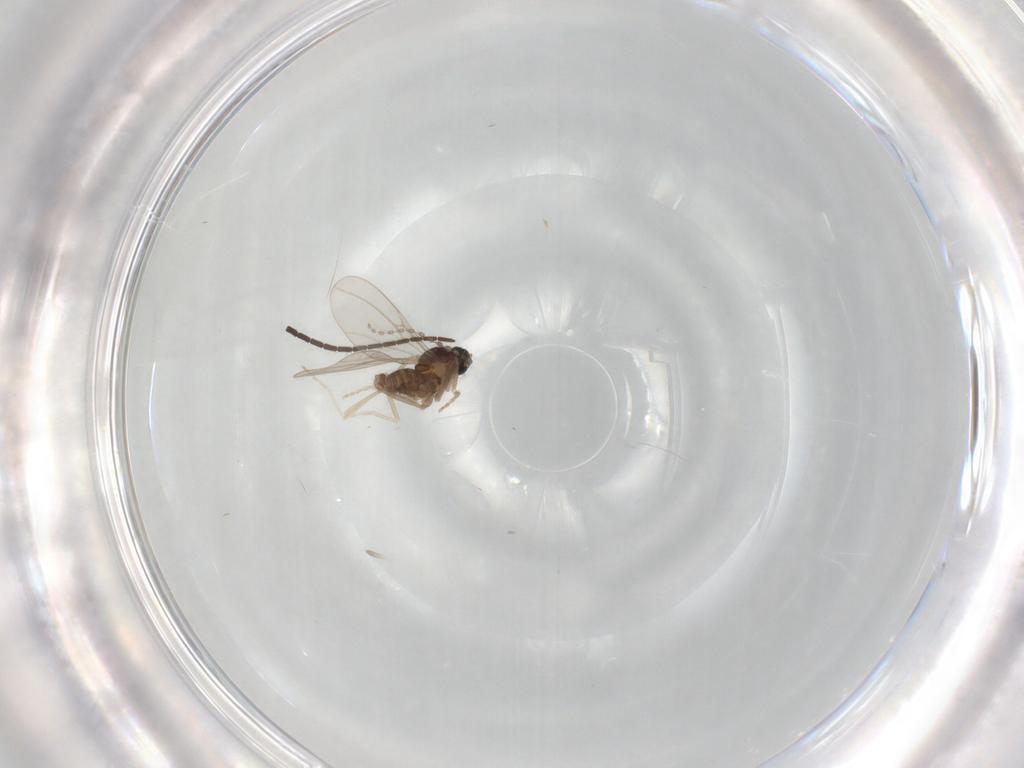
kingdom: Animalia
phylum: Arthropoda
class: Insecta
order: Diptera
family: Cecidomyiidae
